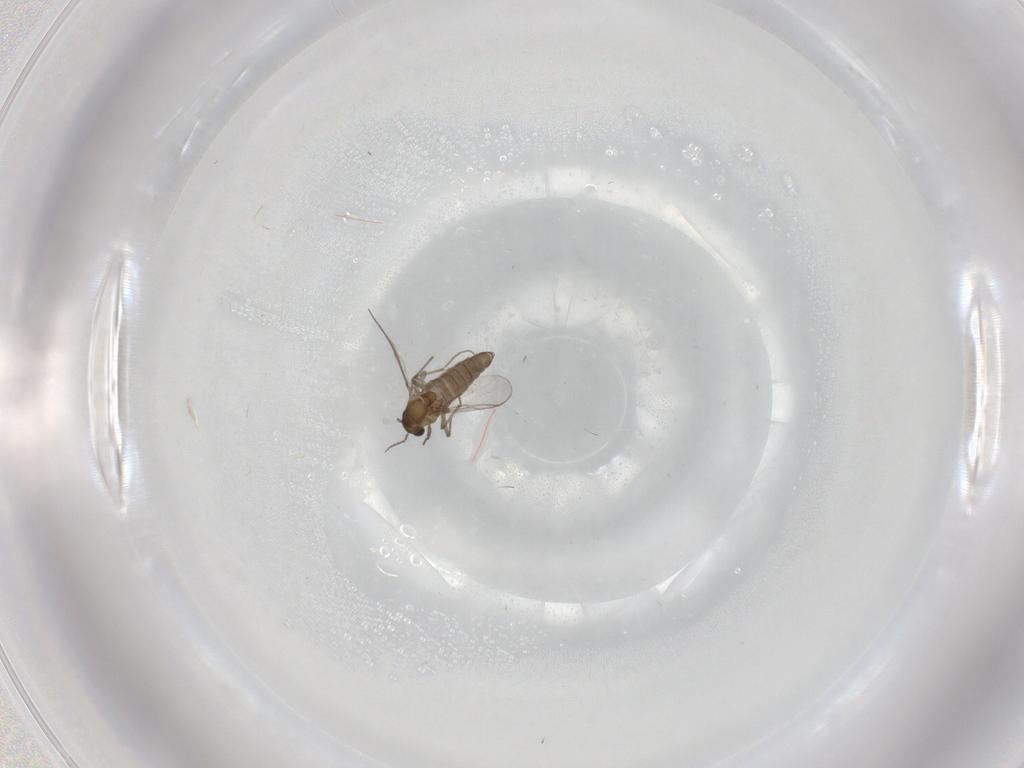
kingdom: Animalia
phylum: Arthropoda
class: Insecta
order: Diptera
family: Chironomidae
